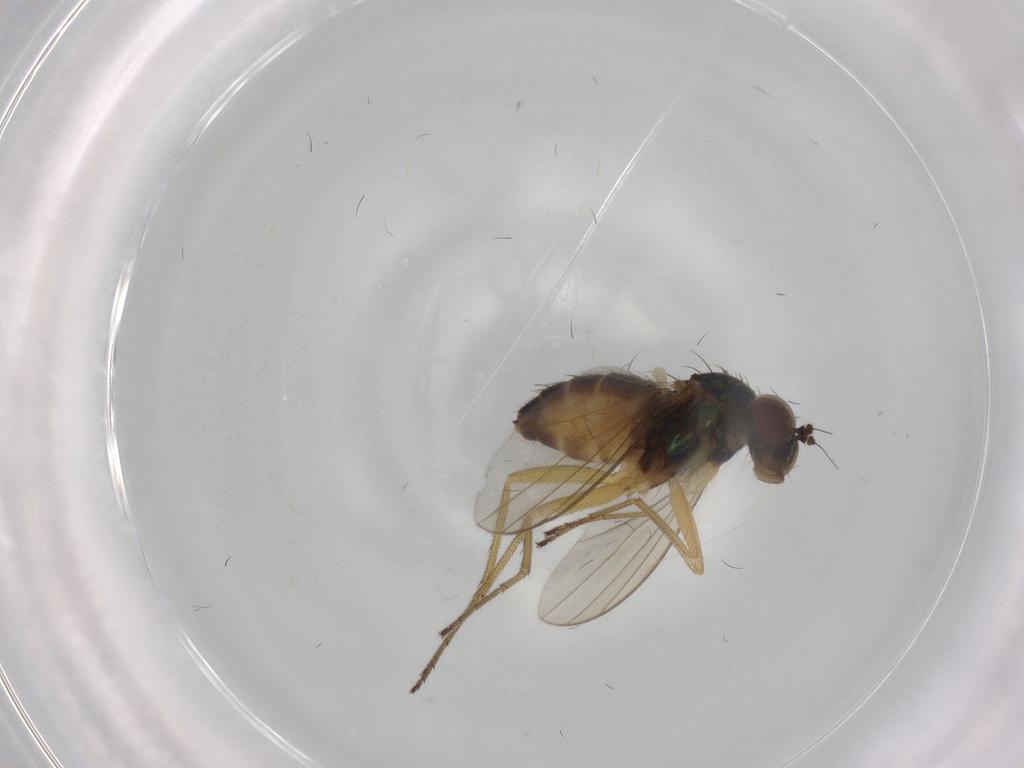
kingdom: Animalia
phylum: Arthropoda
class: Insecta
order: Diptera
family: Dolichopodidae
